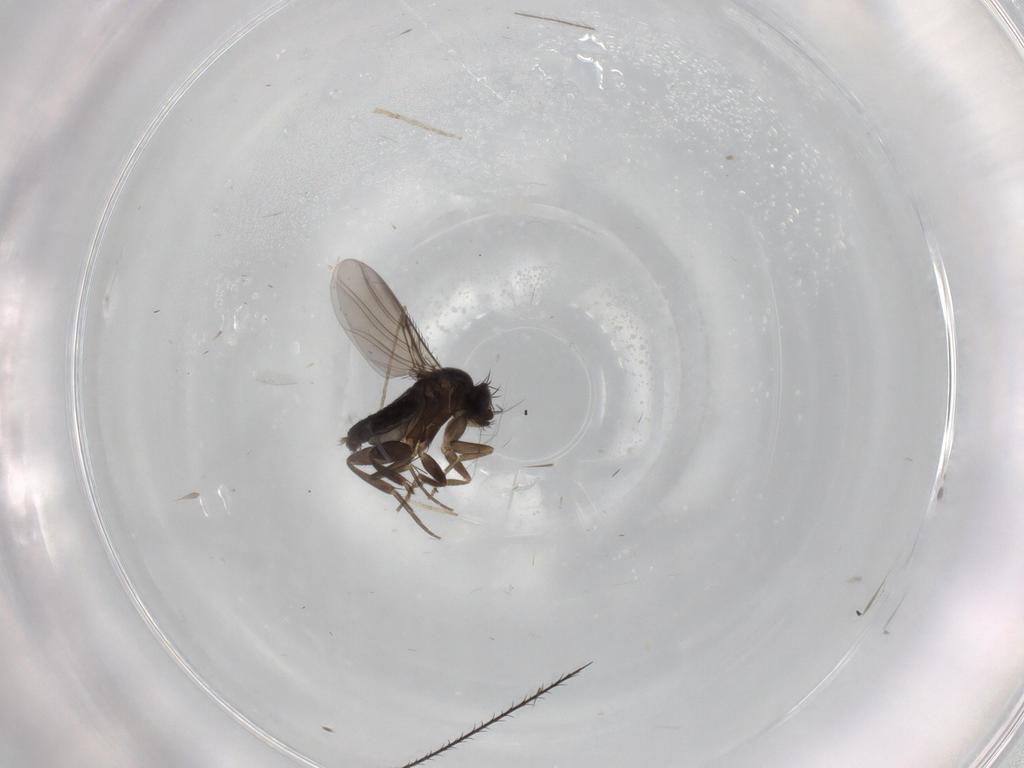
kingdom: Animalia
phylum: Arthropoda
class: Insecta
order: Diptera
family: Phoridae
